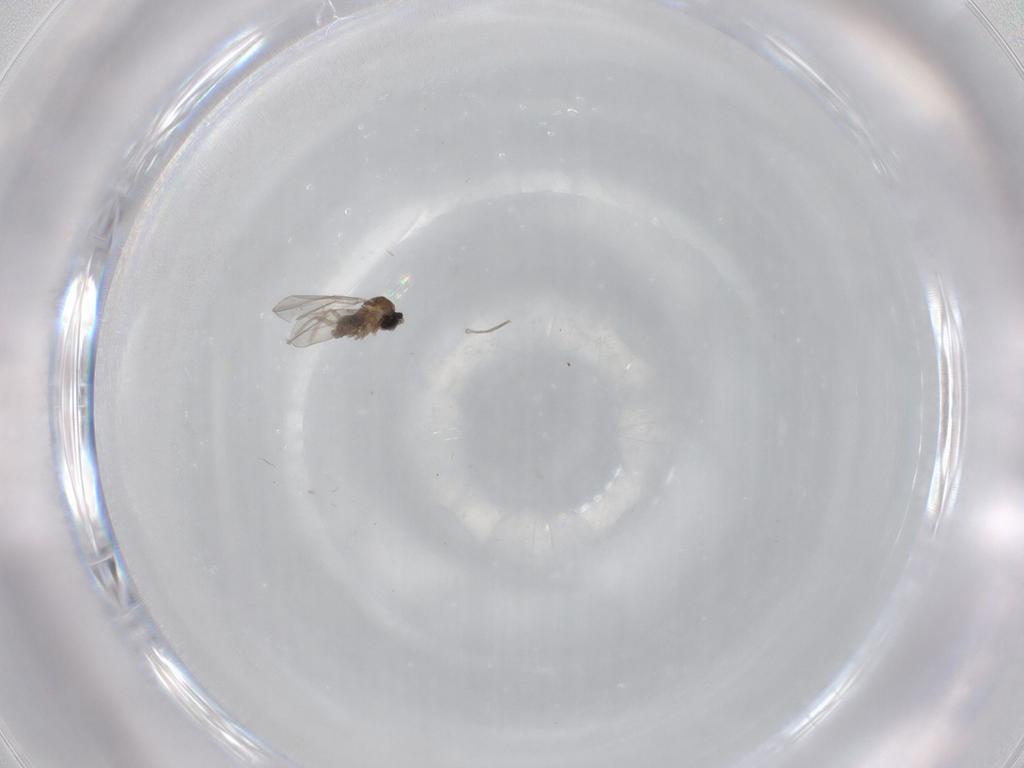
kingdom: Animalia
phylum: Arthropoda
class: Insecta
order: Diptera
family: Cecidomyiidae
